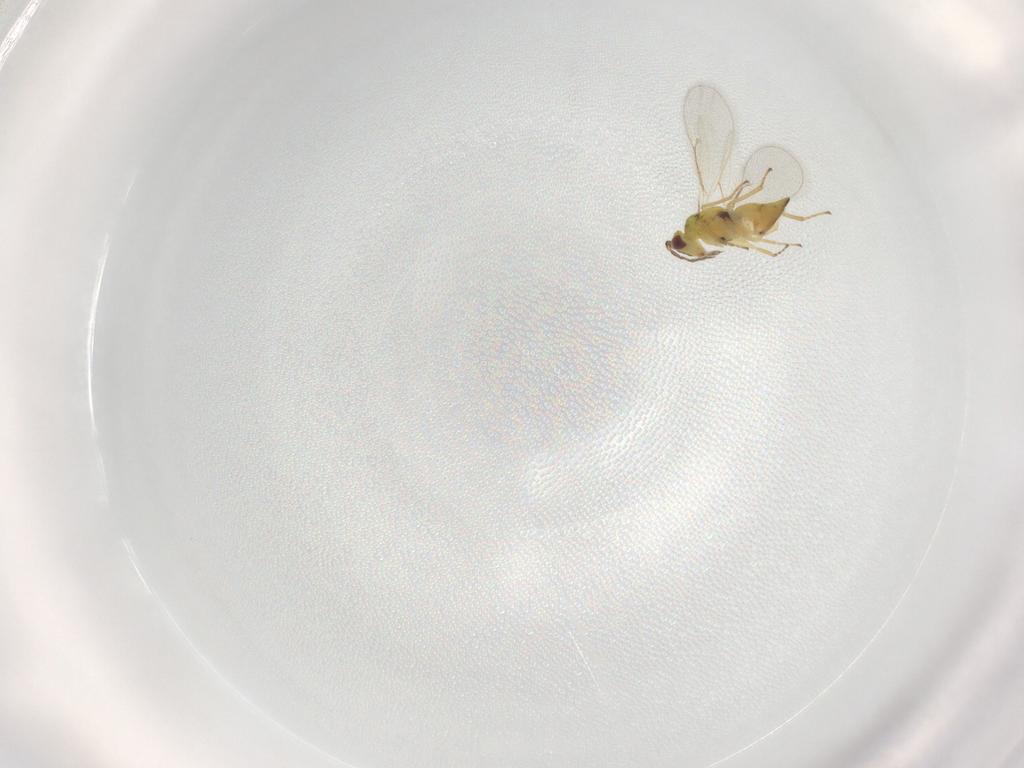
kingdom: Animalia
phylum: Arthropoda
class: Insecta
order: Hymenoptera
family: Eulophidae
